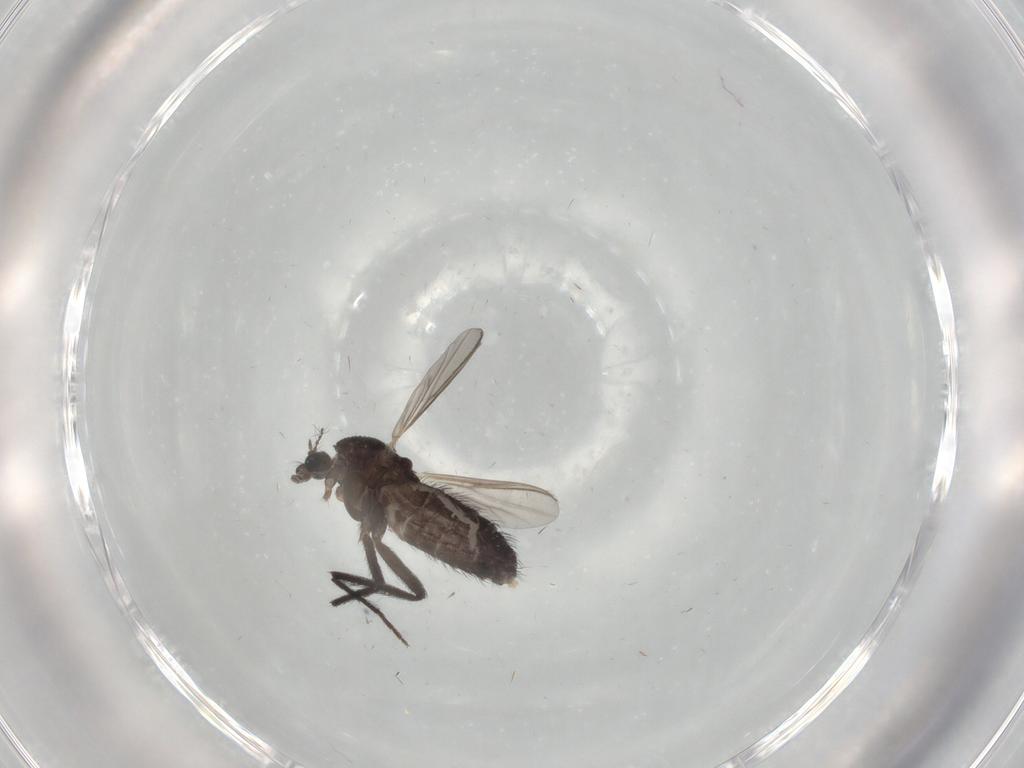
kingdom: Animalia
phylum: Arthropoda
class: Insecta
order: Diptera
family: Chironomidae
